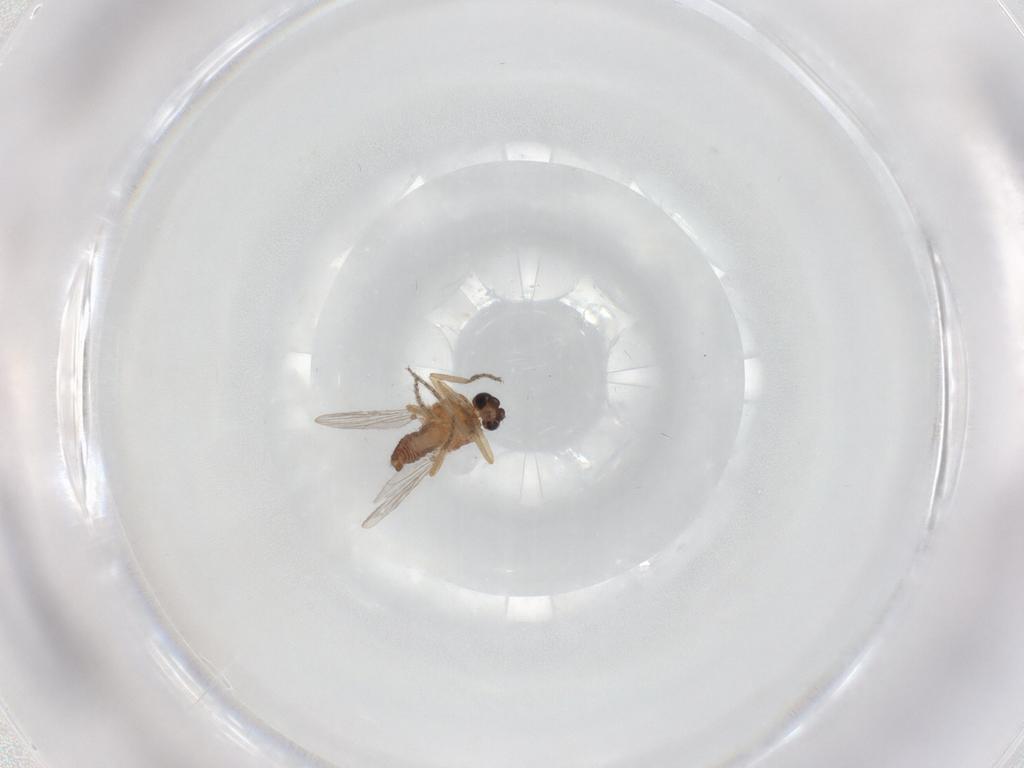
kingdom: Animalia
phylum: Arthropoda
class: Insecta
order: Diptera
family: Ceratopogonidae
